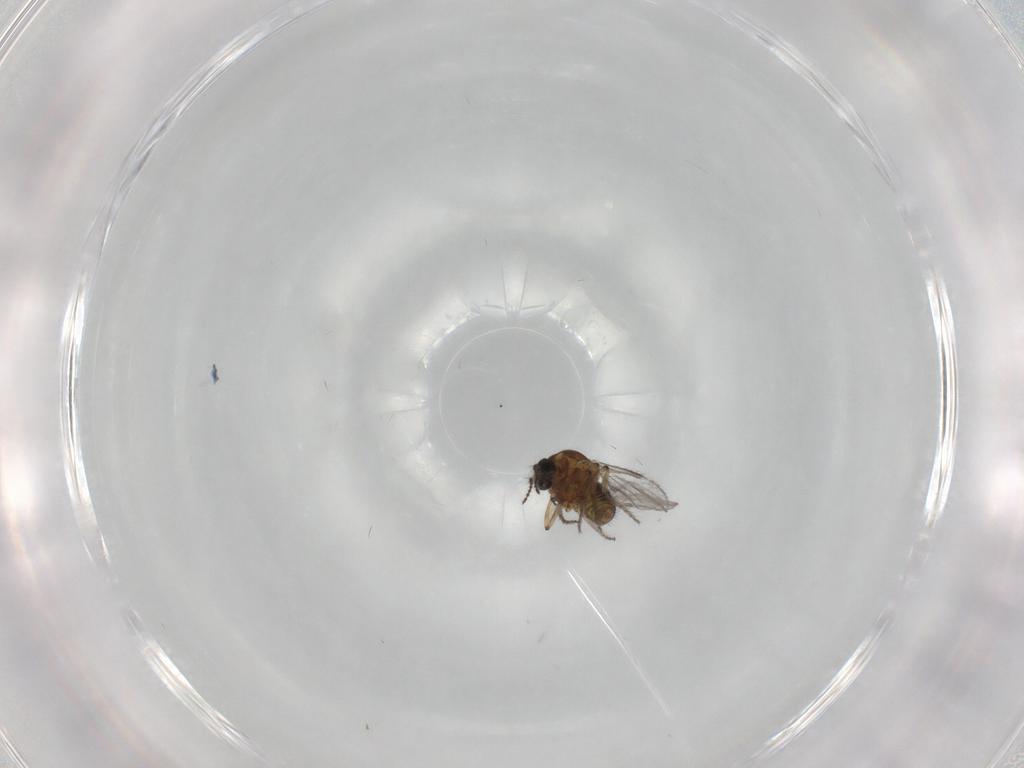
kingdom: Animalia
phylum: Arthropoda
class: Insecta
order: Diptera
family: Ceratopogonidae
